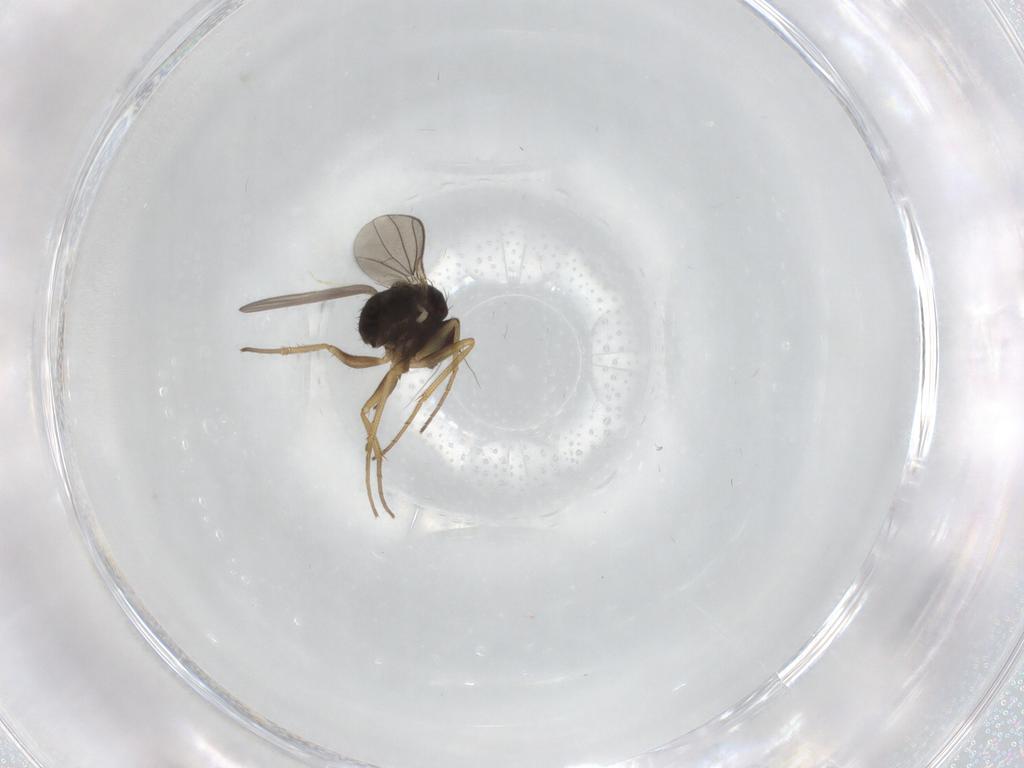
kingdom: Animalia
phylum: Arthropoda
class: Insecta
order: Diptera
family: Dolichopodidae
